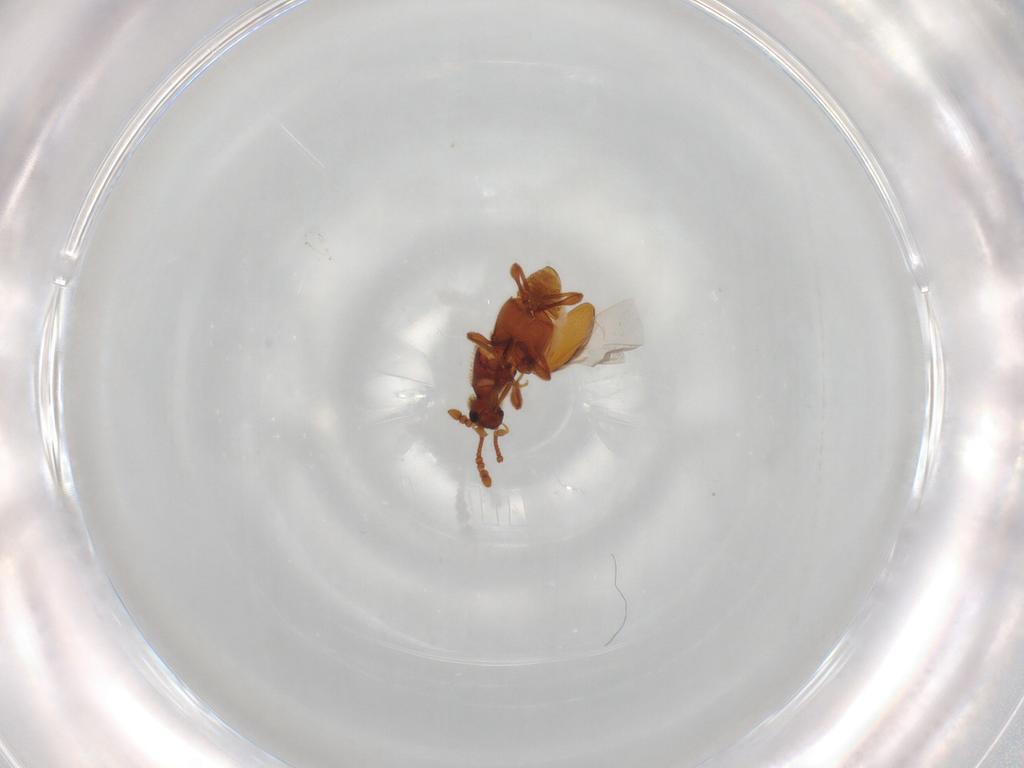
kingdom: Animalia
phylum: Arthropoda
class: Insecta
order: Coleoptera
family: Staphylinidae
